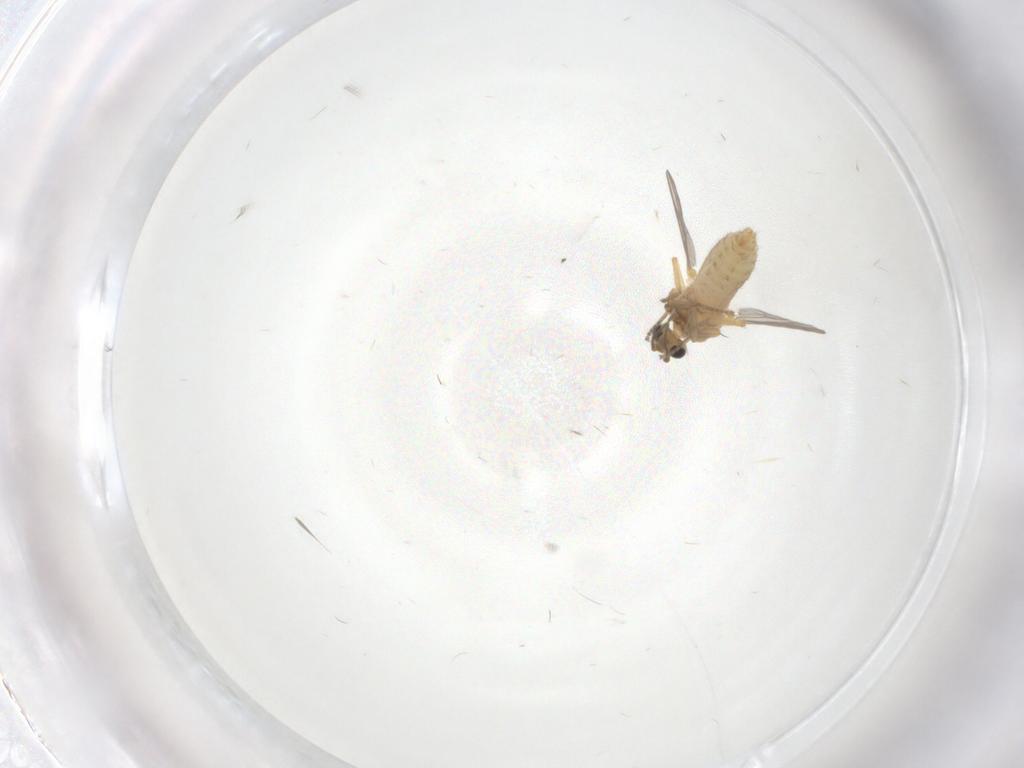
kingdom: Animalia
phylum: Arthropoda
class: Insecta
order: Diptera
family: Ceratopogonidae
